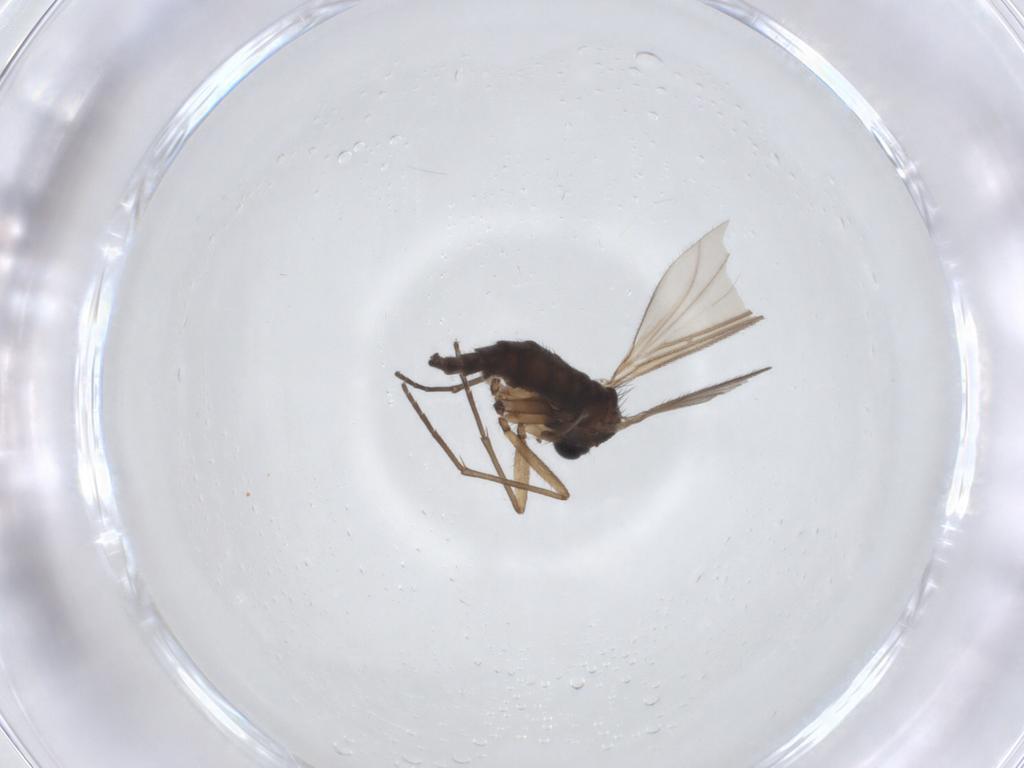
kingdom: Animalia
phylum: Arthropoda
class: Insecta
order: Diptera
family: Sciaridae
